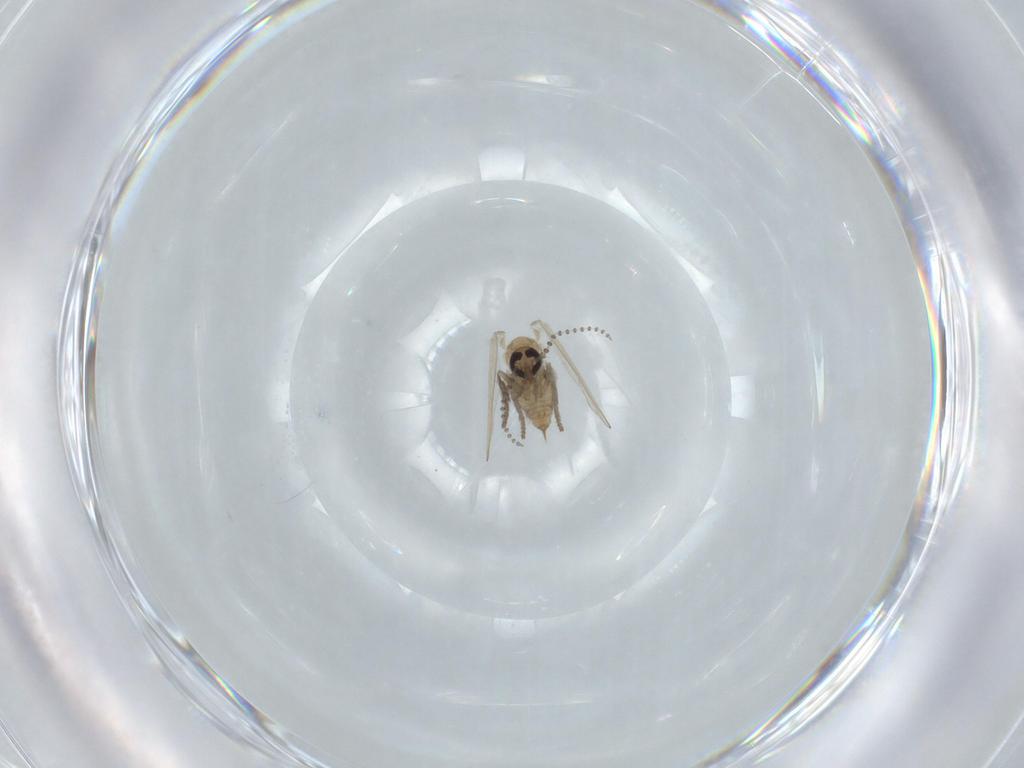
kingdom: Animalia
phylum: Arthropoda
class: Insecta
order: Diptera
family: Psychodidae
